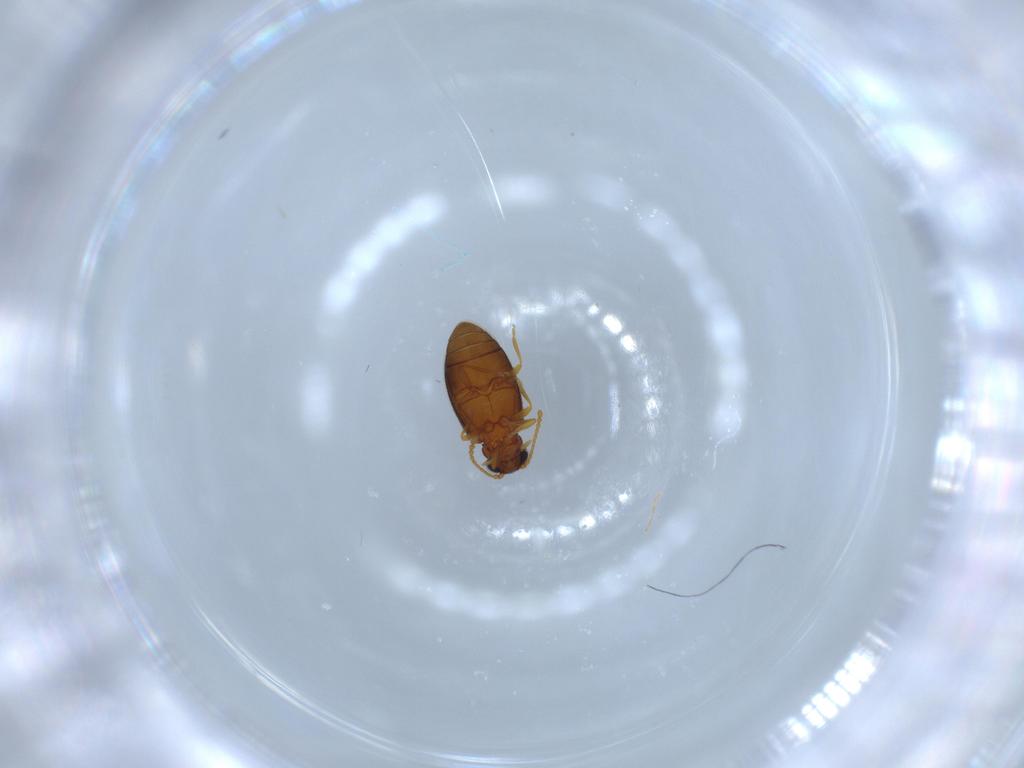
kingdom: Animalia
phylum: Arthropoda
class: Insecta
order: Coleoptera
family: Aderidae
